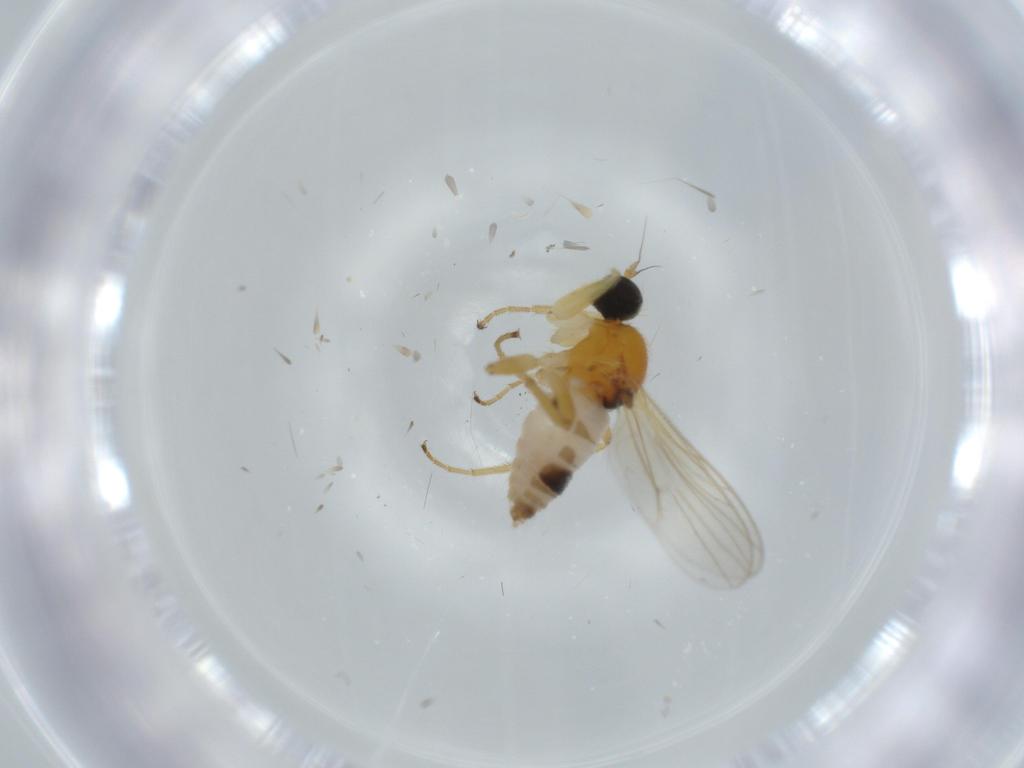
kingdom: Animalia
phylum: Arthropoda
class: Insecta
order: Diptera
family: Hybotidae
